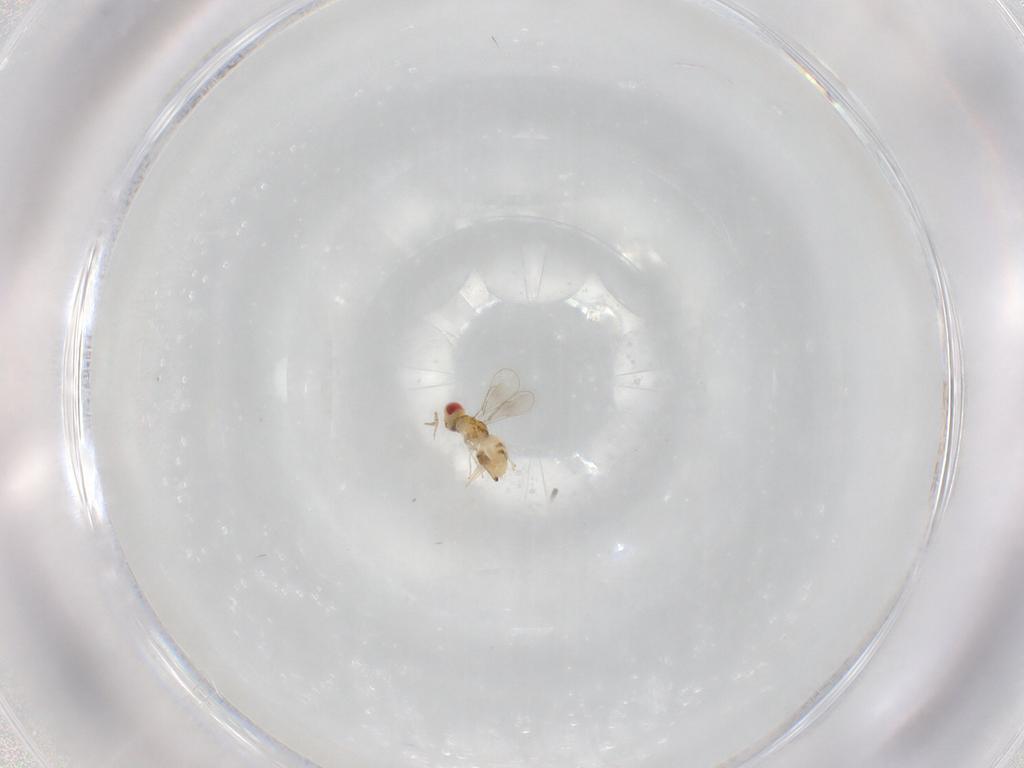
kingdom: Animalia
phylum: Arthropoda
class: Insecta
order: Hymenoptera
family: Eulophidae
